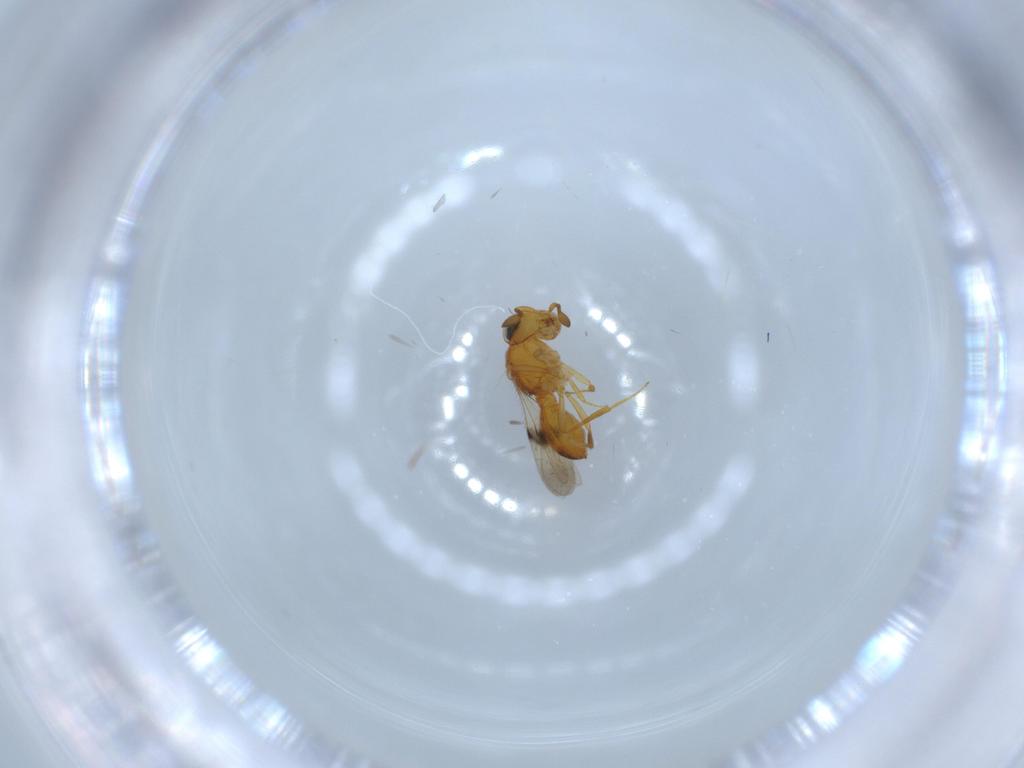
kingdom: Animalia
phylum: Arthropoda
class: Insecta
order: Hymenoptera
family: Scelionidae
